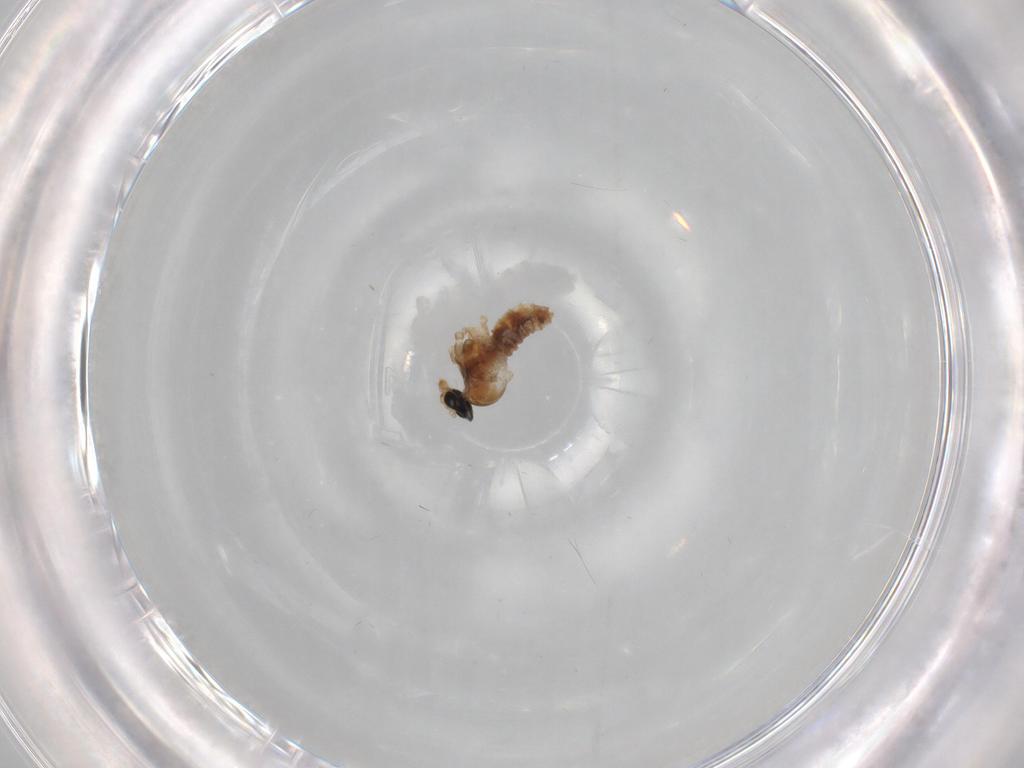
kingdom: Animalia
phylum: Arthropoda
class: Insecta
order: Diptera
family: Cecidomyiidae
